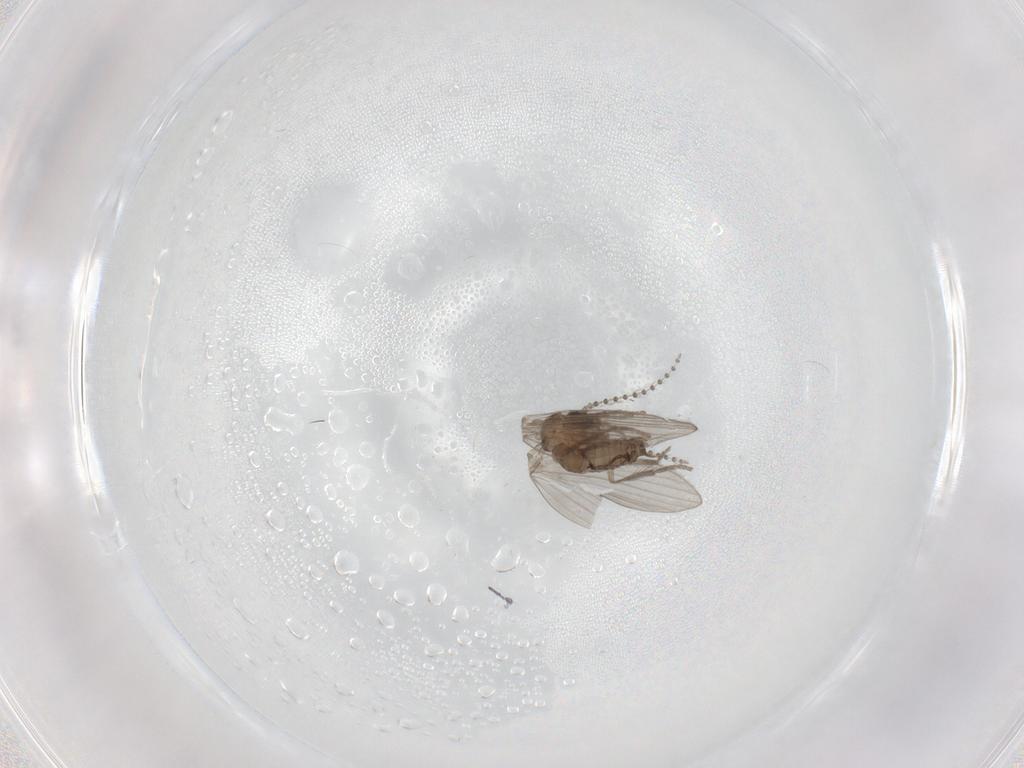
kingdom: Animalia
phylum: Arthropoda
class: Insecta
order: Diptera
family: Psychodidae
